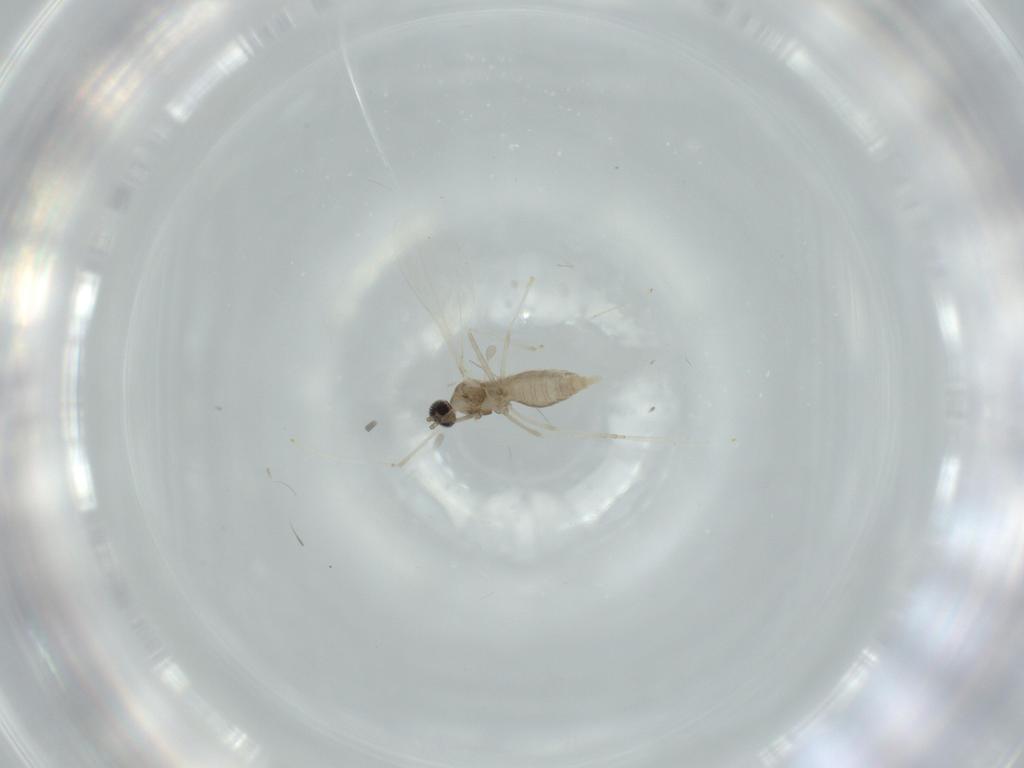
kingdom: Animalia
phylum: Arthropoda
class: Insecta
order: Diptera
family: Cecidomyiidae
